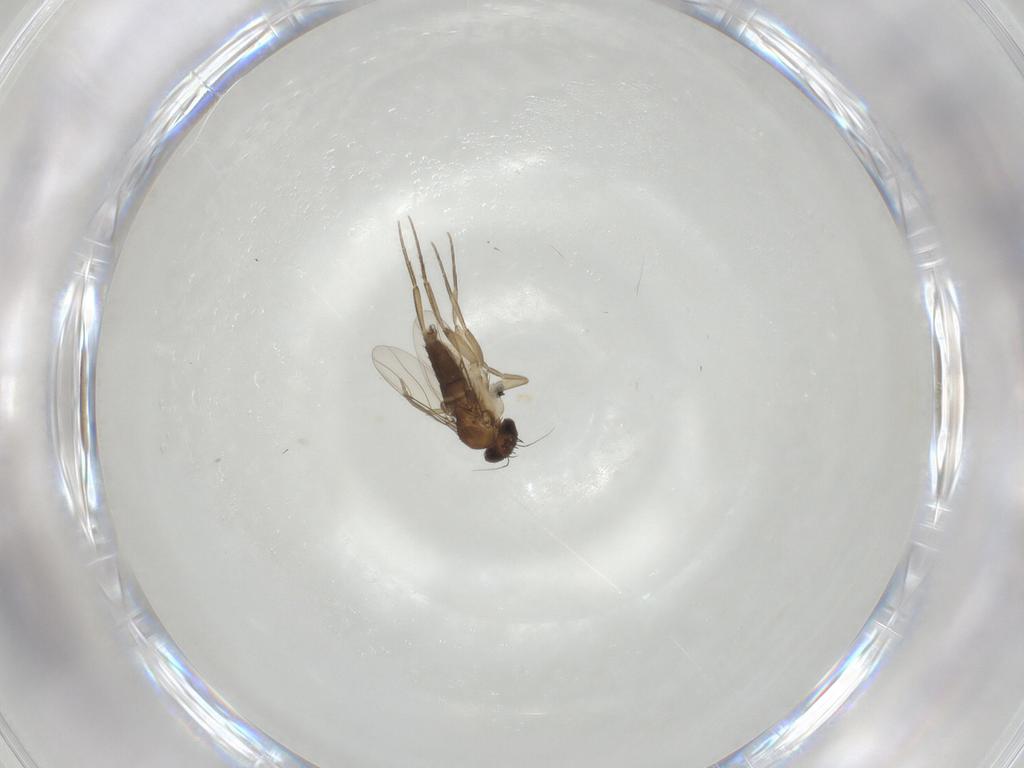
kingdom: Animalia
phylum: Arthropoda
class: Insecta
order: Diptera
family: Phoridae
